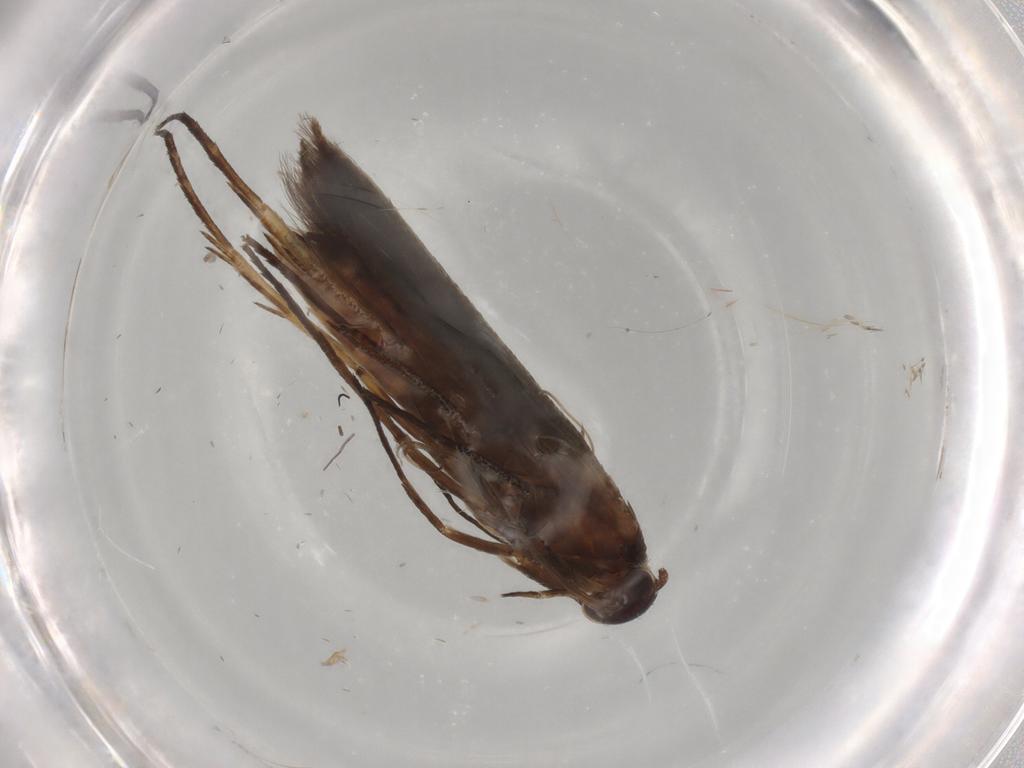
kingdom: Animalia
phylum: Arthropoda
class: Insecta
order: Lepidoptera
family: Scythrididae
